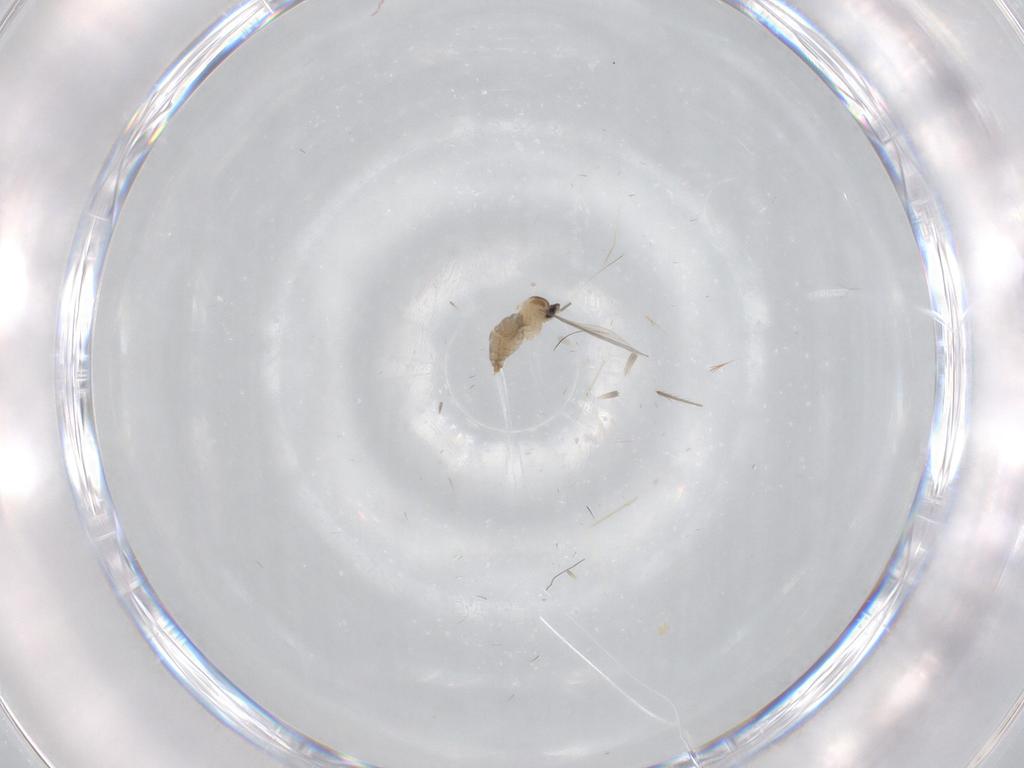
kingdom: Animalia
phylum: Arthropoda
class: Insecta
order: Diptera
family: Cecidomyiidae
